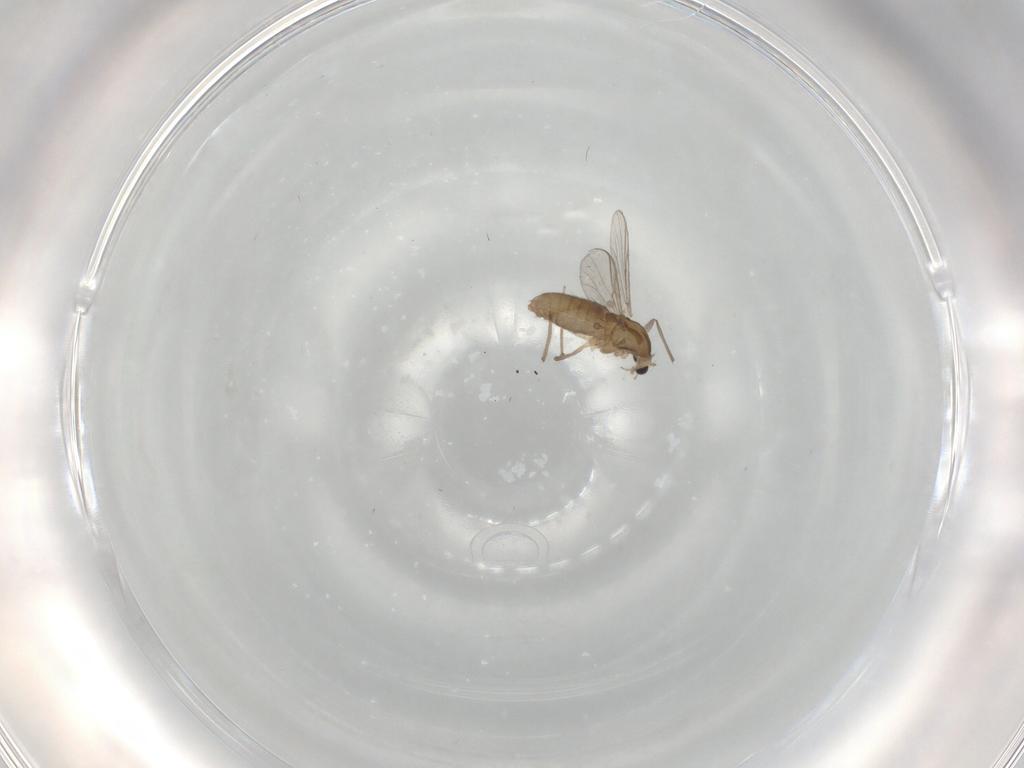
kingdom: Animalia
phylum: Arthropoda
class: Insecta
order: Diptera
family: Chironomidae
